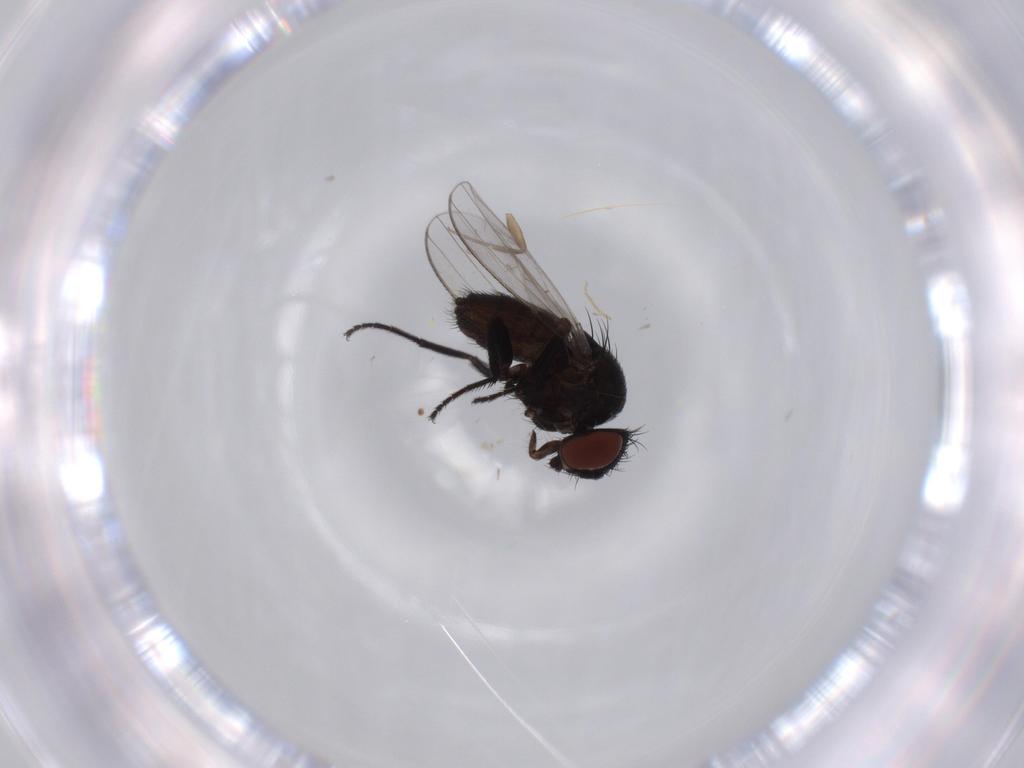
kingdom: Animalia
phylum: Arthropoda
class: Insecta
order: Diptera
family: Milichiidae
